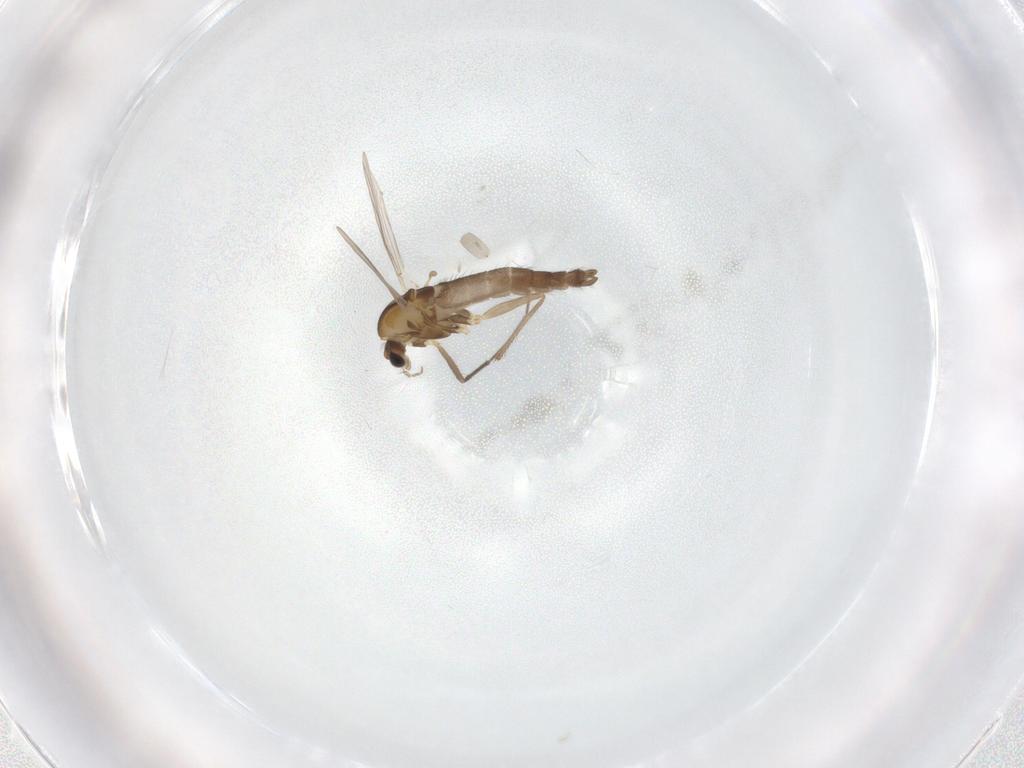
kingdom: Animalia
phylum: Arthropoda
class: Insecta
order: Diptera
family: Chironomidae
